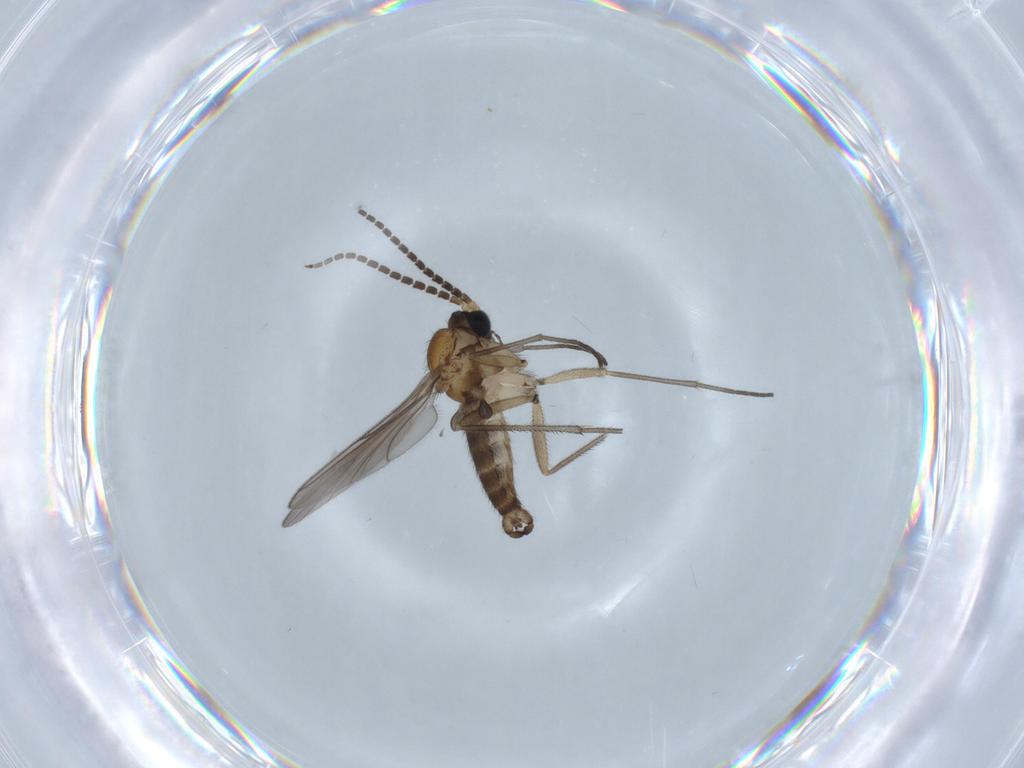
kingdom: Animalia
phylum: Arthropoda
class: Insecta
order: Diptera
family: Sciaridae
